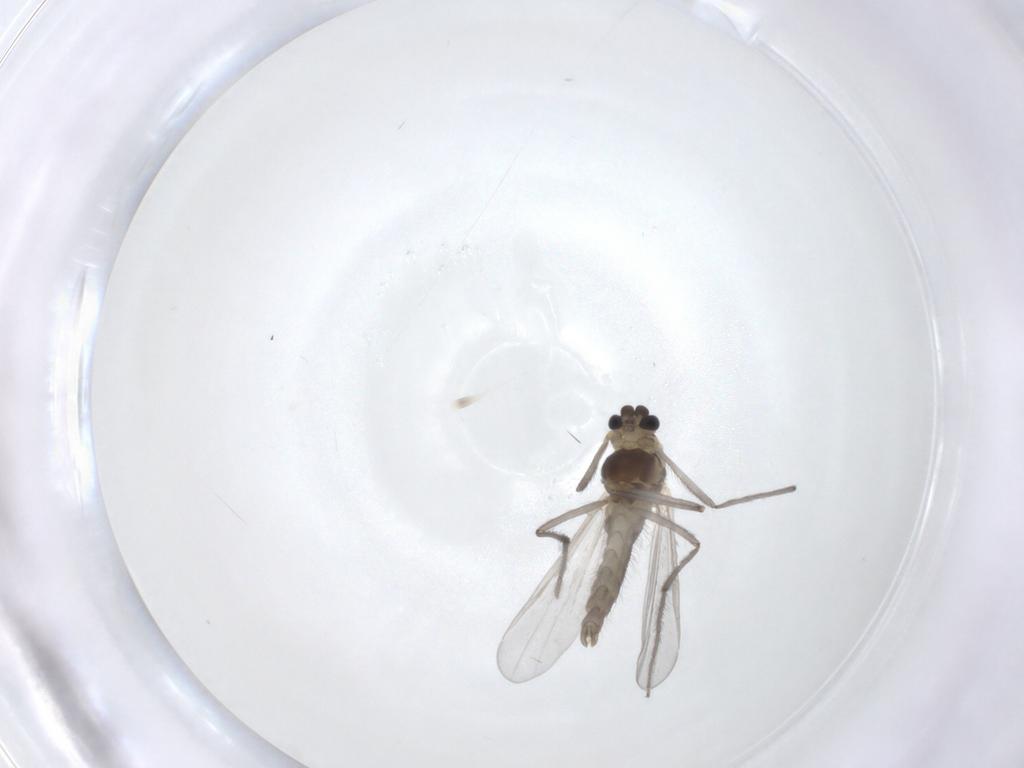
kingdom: Animalia
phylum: Arthropoda
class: Insecta
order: Diptera
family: Chironomidae
